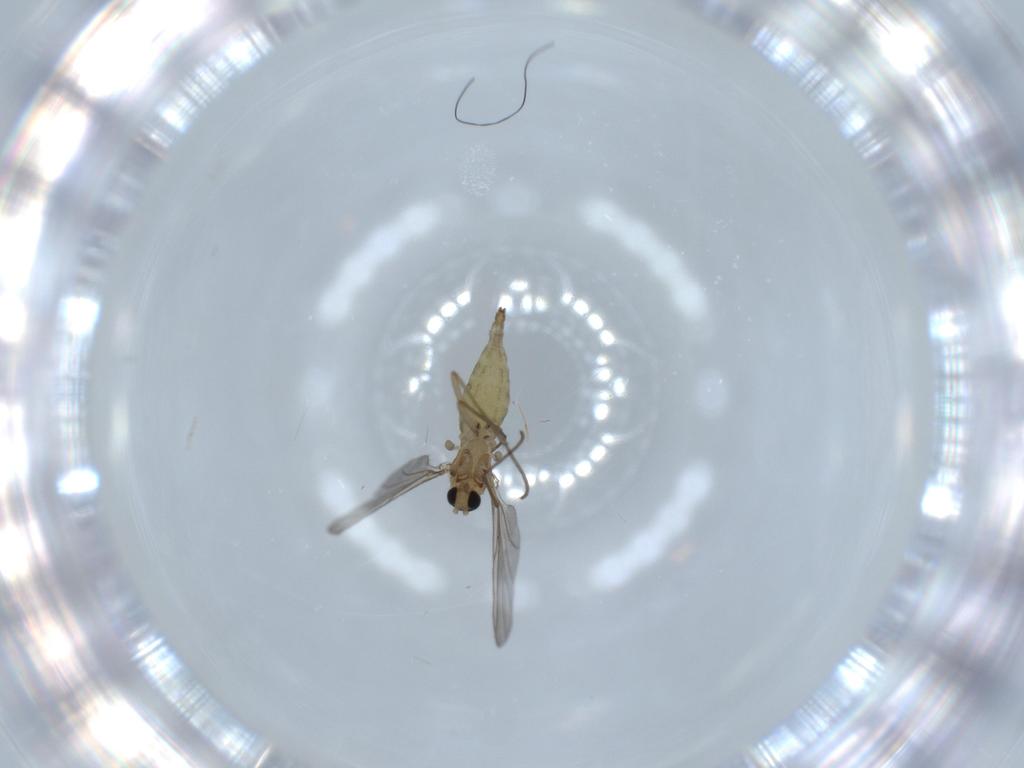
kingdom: Animalia
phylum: Arthropoda
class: Insecta
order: Diptera
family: Sciaridae
